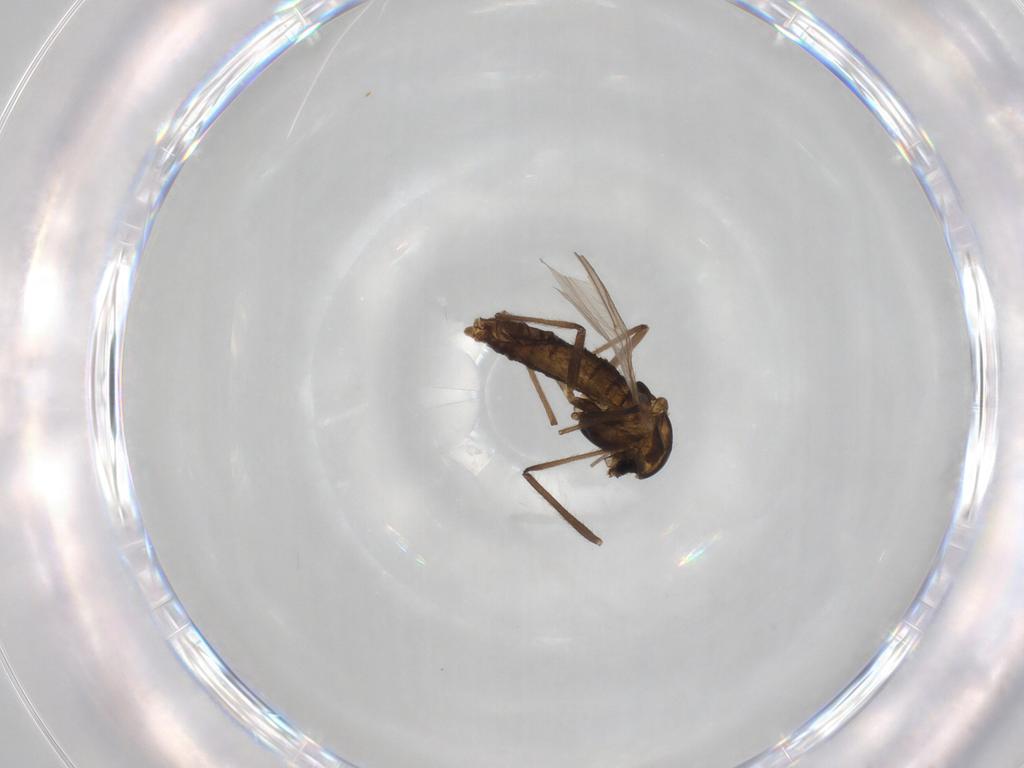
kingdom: Animalia
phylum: Arthropoda
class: Insecta
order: Diptera
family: Chironomidae
